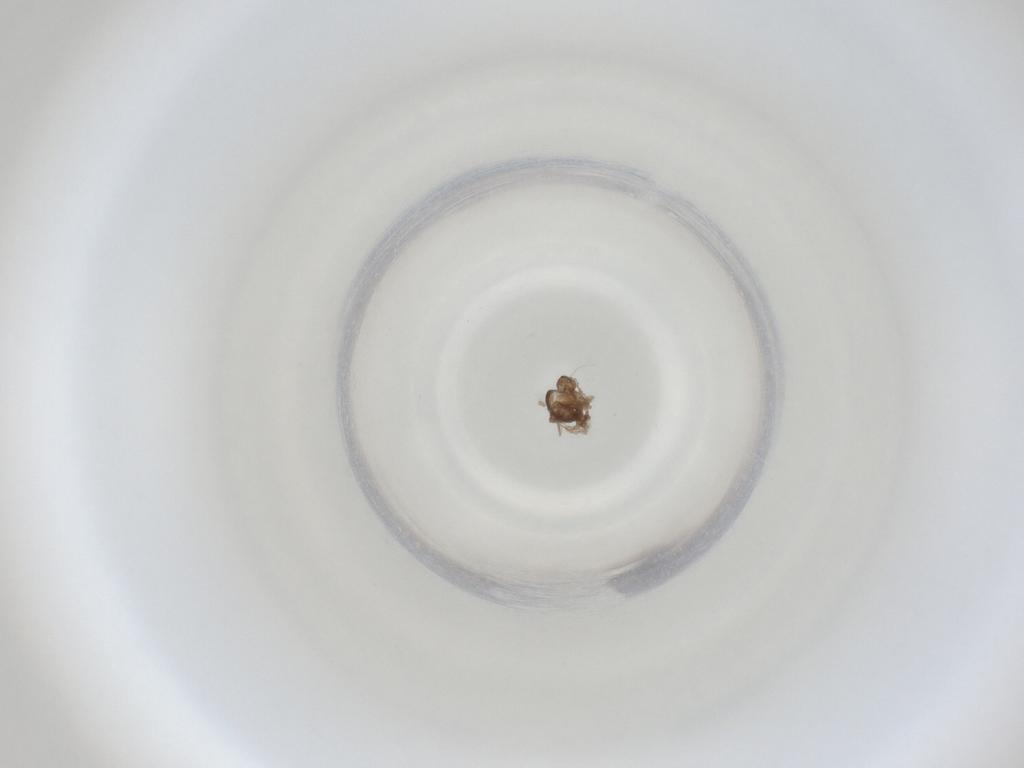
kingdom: Animalia
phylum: Arthropoda
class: Insecta
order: Diptera
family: Cecidomyiidae
